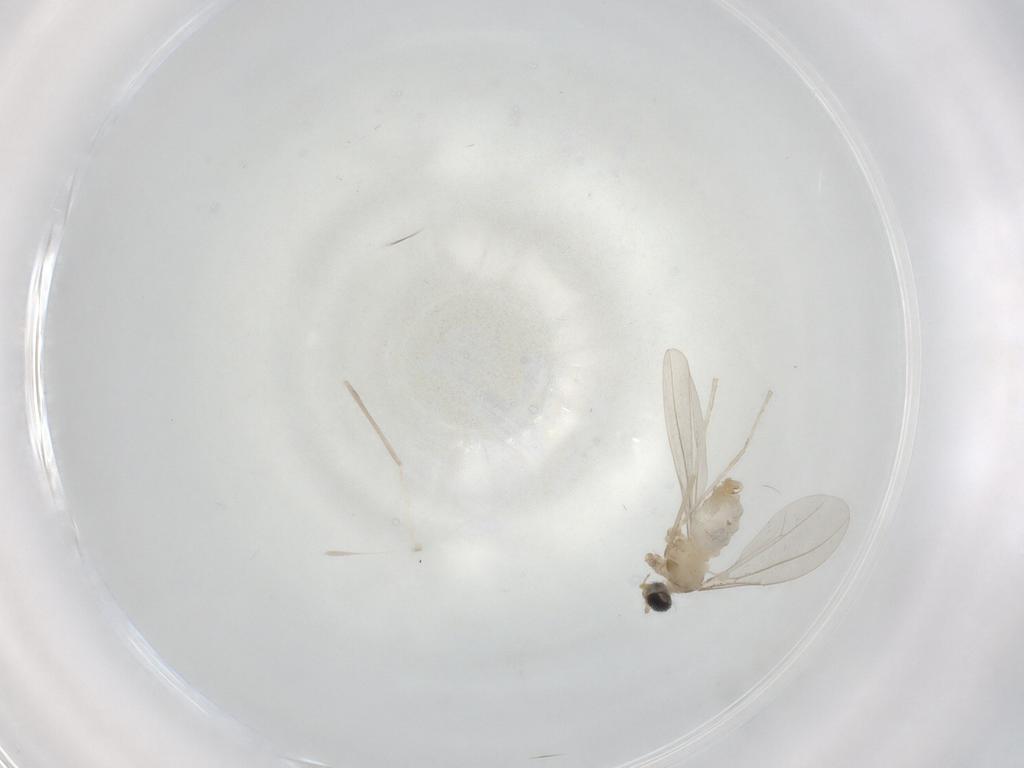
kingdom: Animalia
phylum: Arthropoda
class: Insecta
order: Diptera
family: Cecidomyiidae
